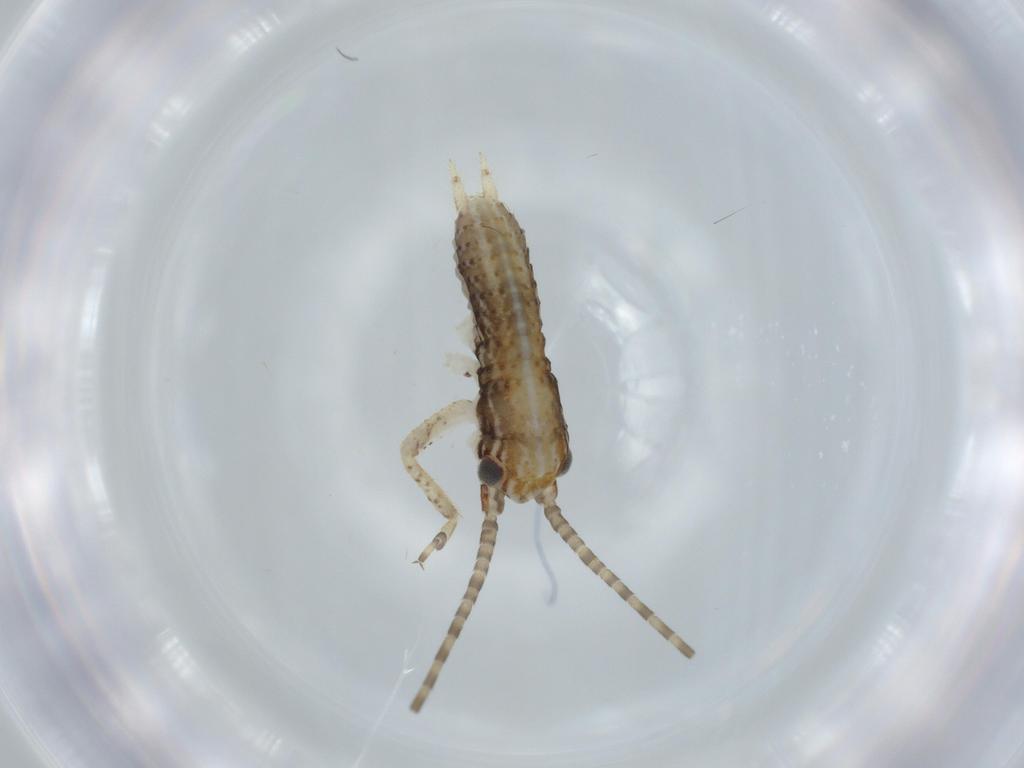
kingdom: Animalia
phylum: Arthropoda
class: Insecta
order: Orthoptera
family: Gryllidae
